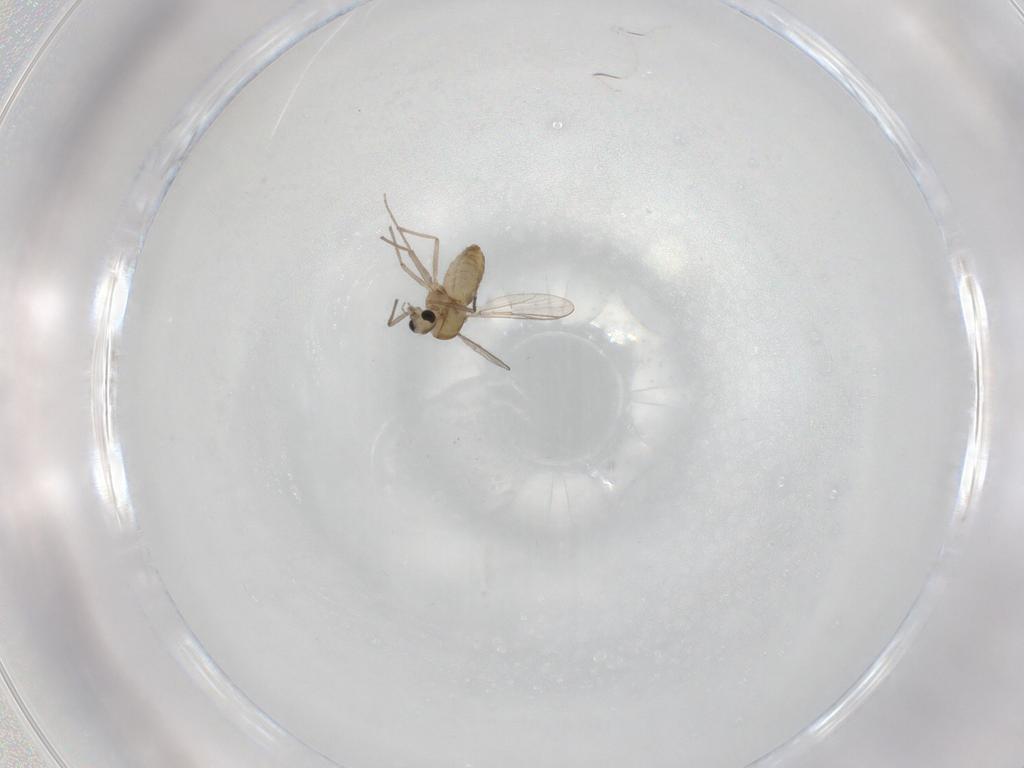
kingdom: Animalia
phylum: Arthropoda
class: Insecta
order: Diptera
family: Chironomidae
